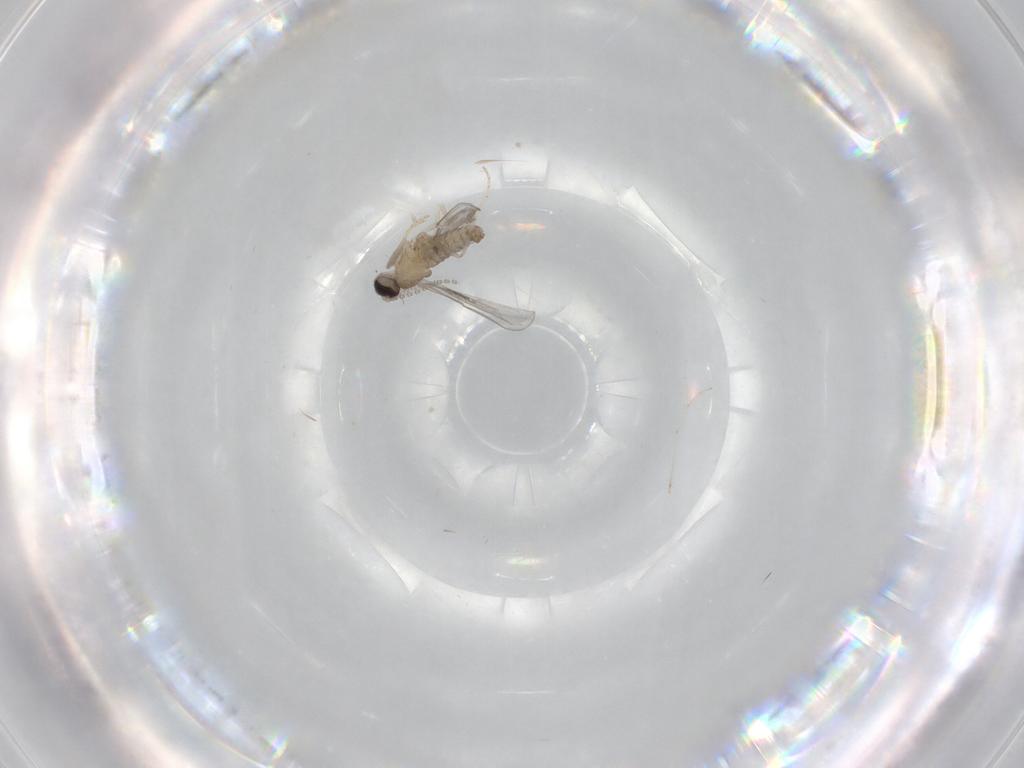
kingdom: Animalia
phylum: Arthropoda
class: Insecta
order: Diptera
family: Cecidomyiidae
